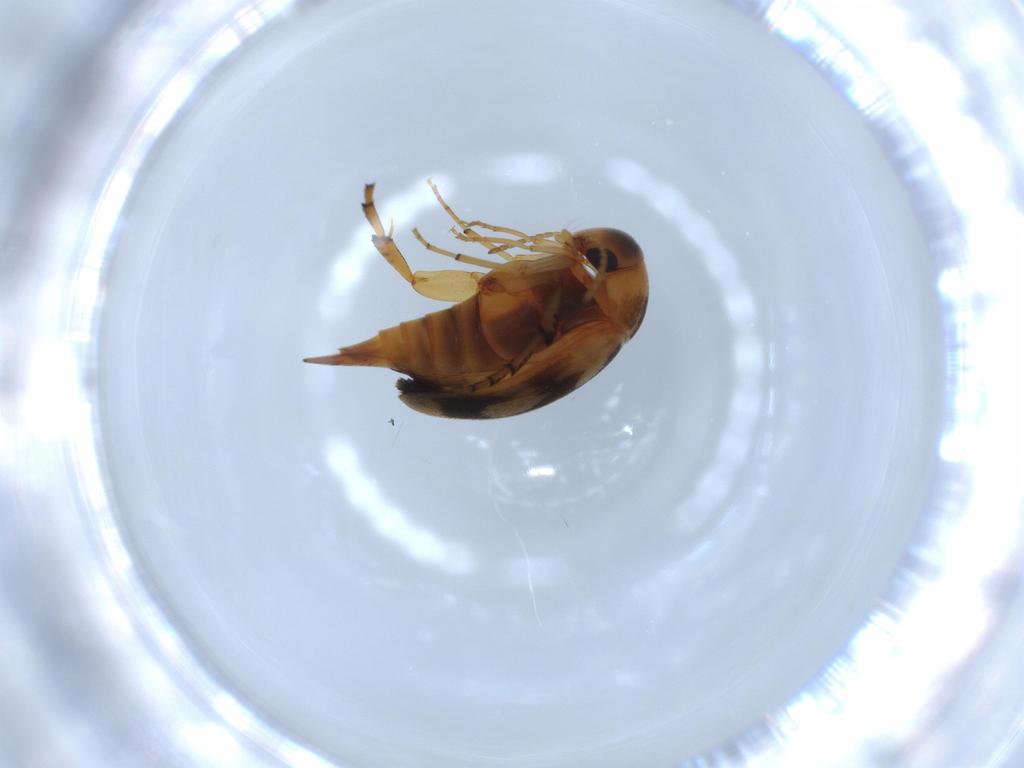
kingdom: Animalia
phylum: Arthropoda
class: Insecta
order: Coleoptera
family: Mordellidae
